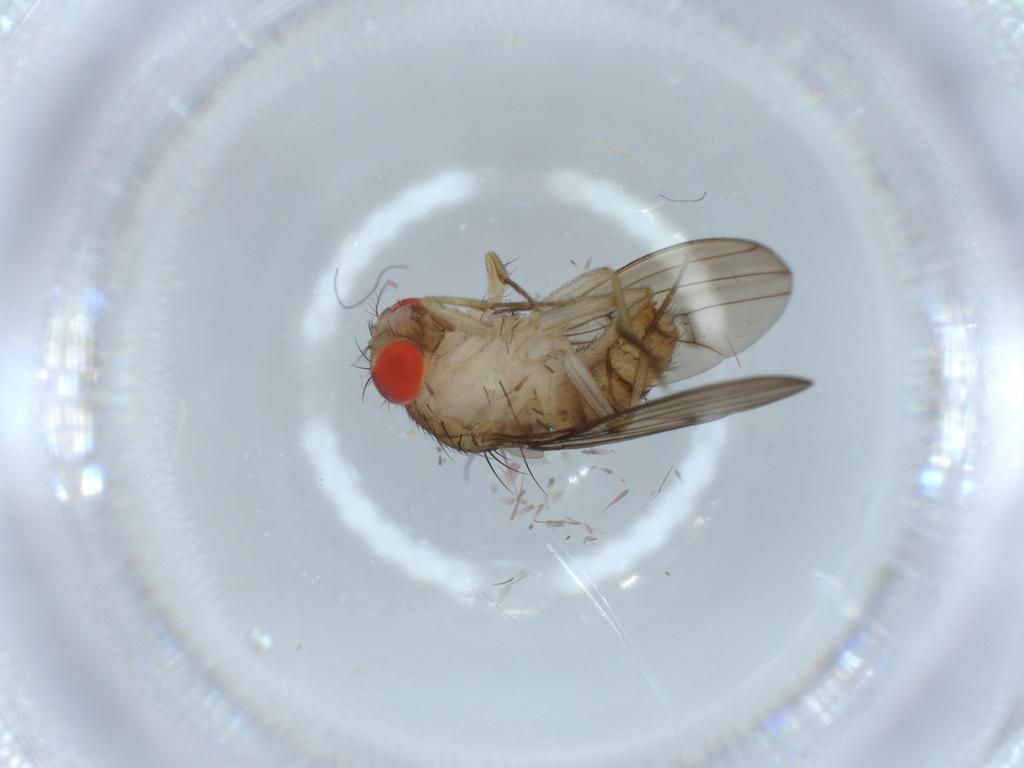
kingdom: Animalia
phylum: Arthropoda
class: Insecta
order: Diptera
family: Drosophilidae
